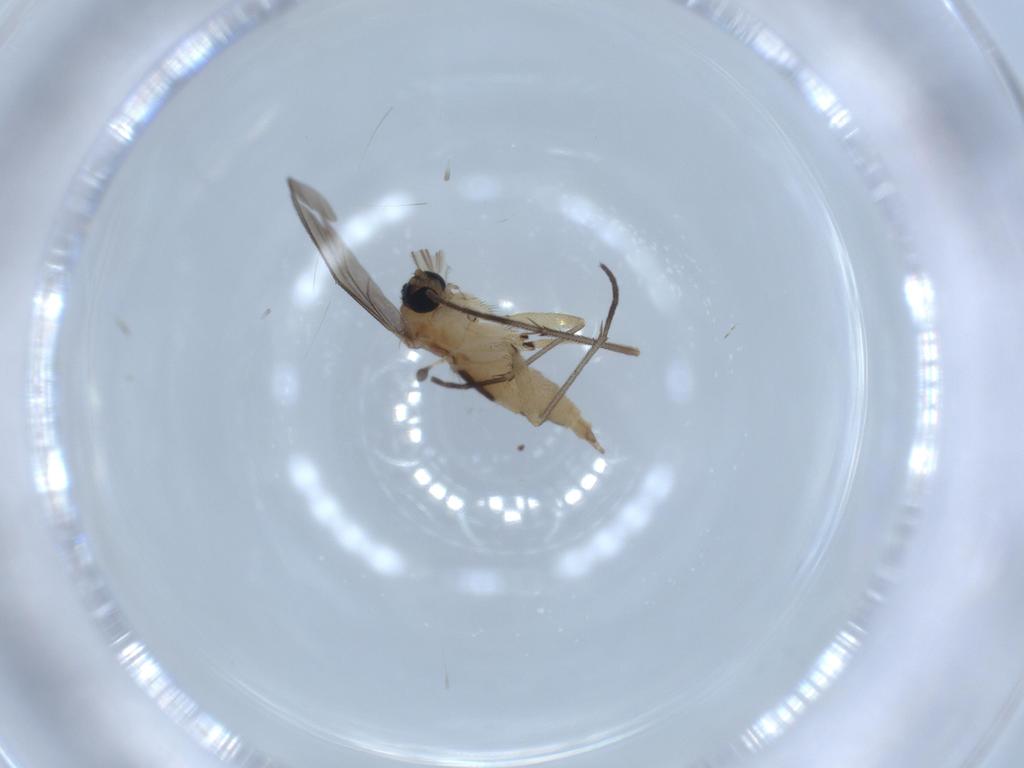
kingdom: Animalia
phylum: Arthropoda
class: Insecta
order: Diptera
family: Sciaridae
